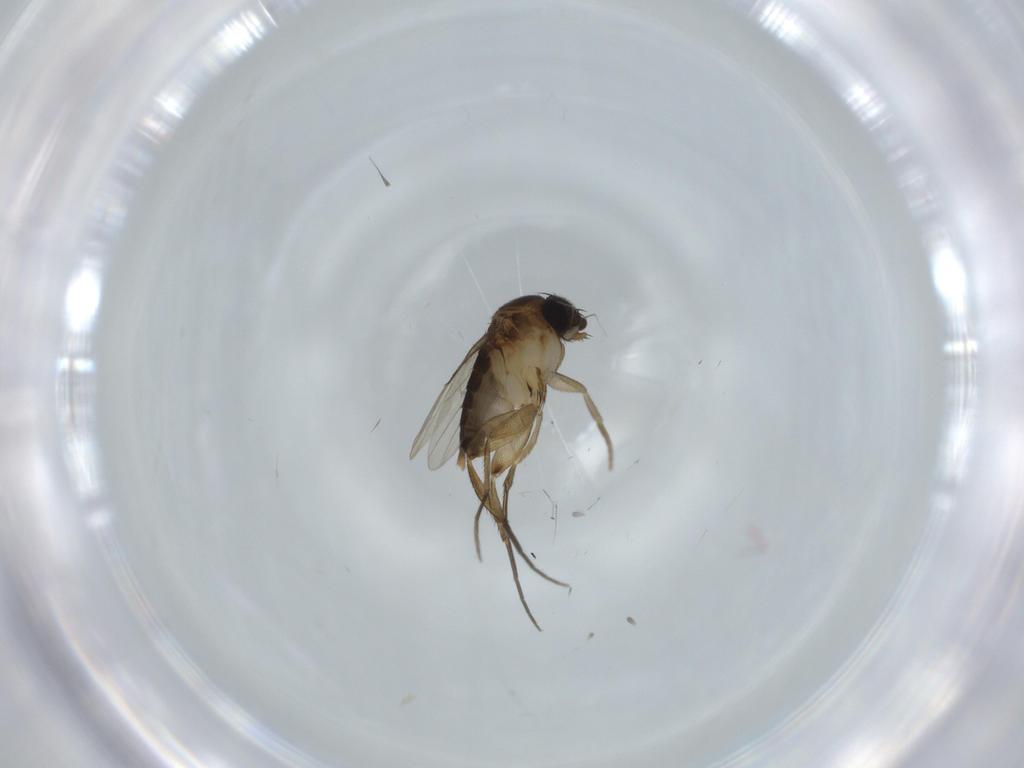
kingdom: Animalia
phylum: Arthropoda
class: Insecta
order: Diptera
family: Phoridae
